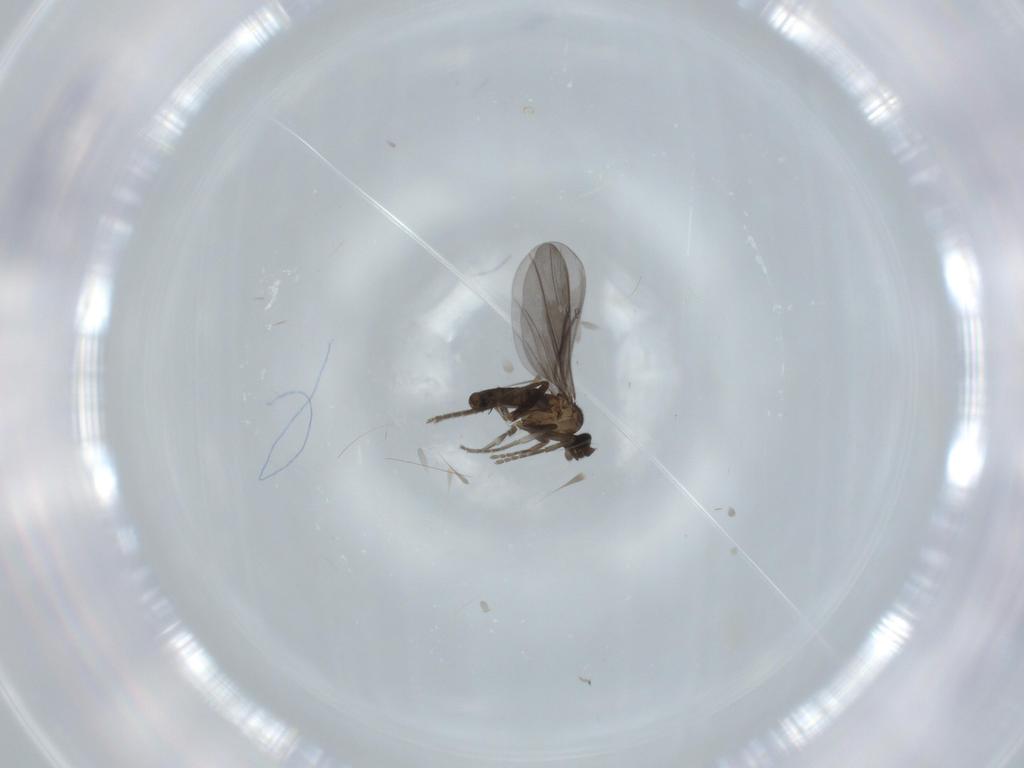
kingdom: Animalia
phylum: Arthropoda
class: Insecta
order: Diptera
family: Phoridae
